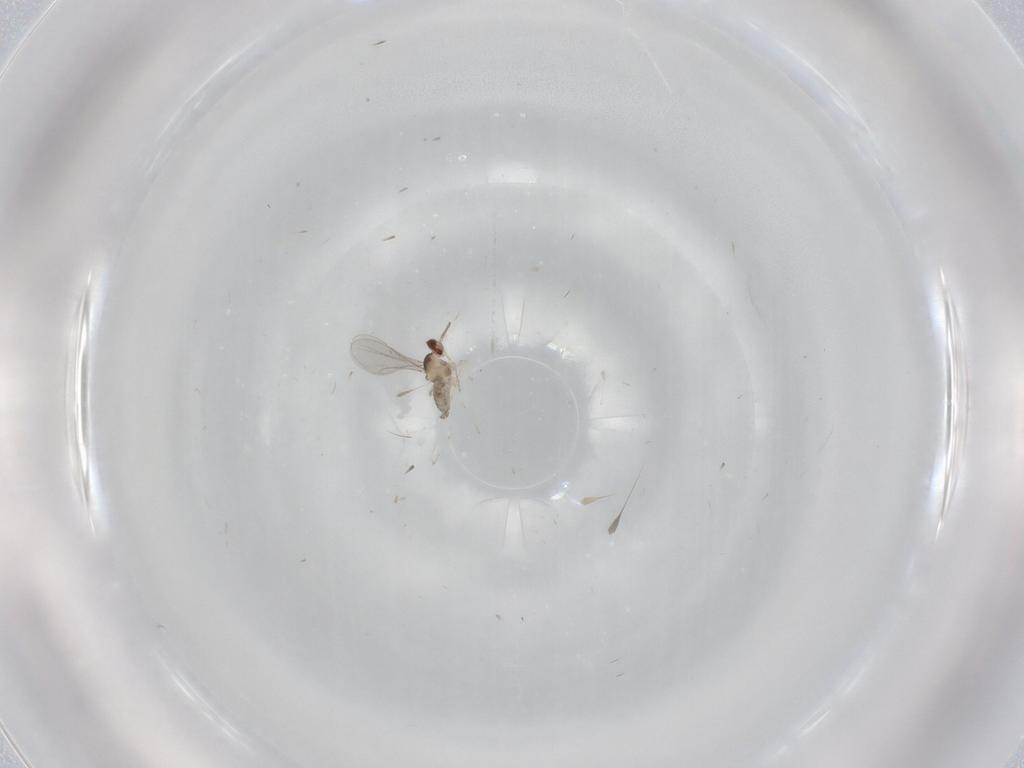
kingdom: Animalia
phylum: Arthropoda
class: Insecta
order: Diptera
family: Cecidomyiidae
